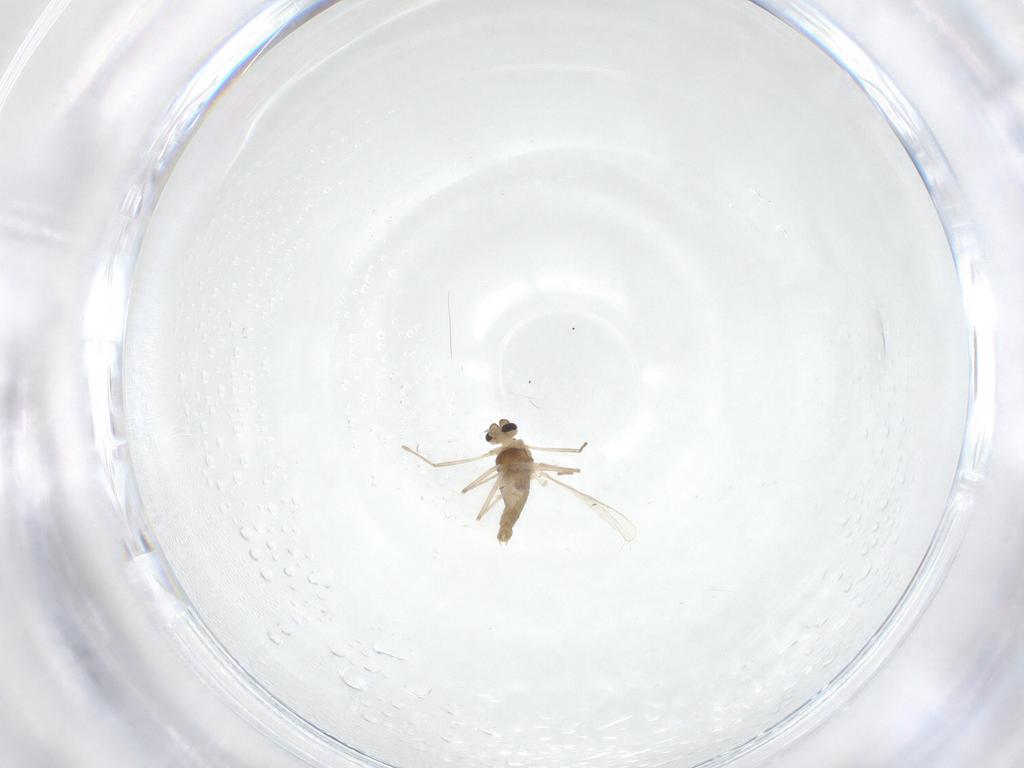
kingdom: Animalia
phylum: Arthropoda
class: Insecta
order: Diptera
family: Chironomidae
